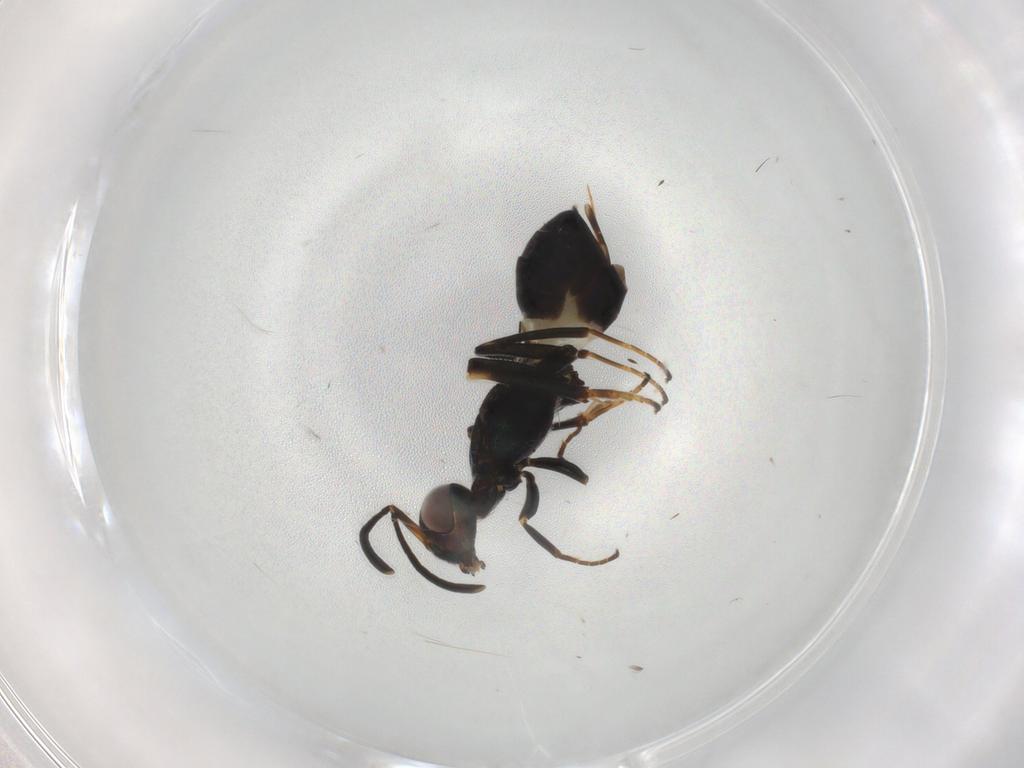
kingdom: Animalia
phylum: Arthropoda
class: Insecta
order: Hymenoptera
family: Eupelmidae
